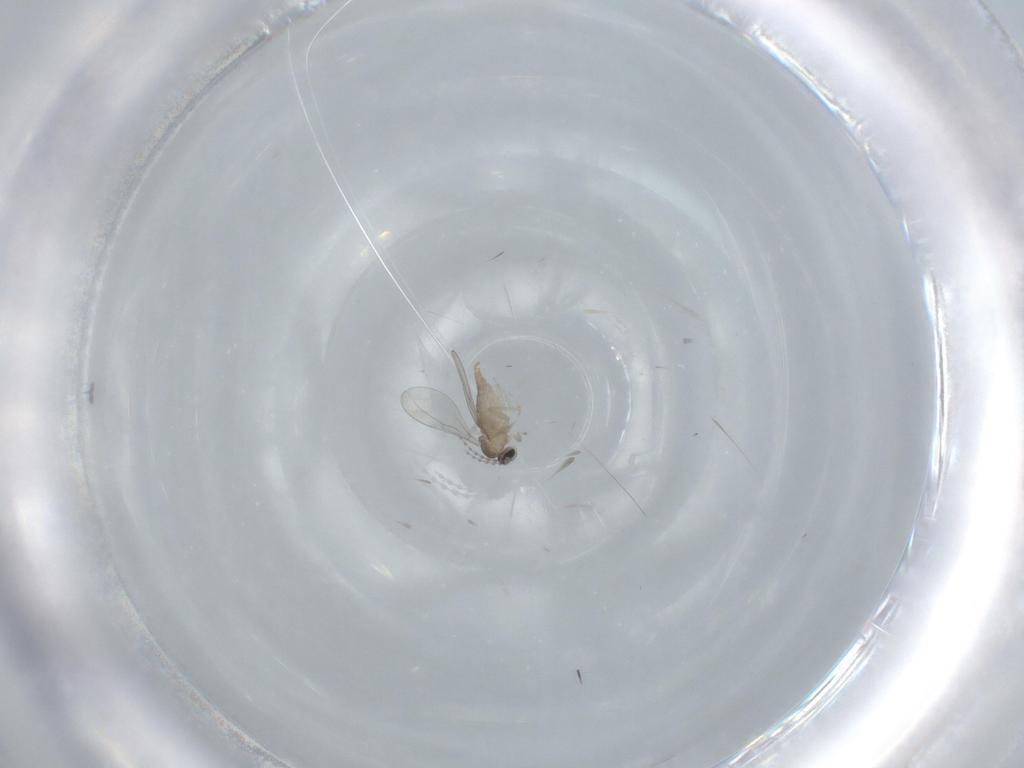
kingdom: Animalia
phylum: Arthropoda
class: Insecta
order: Diptera
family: Cecidomyiidae
